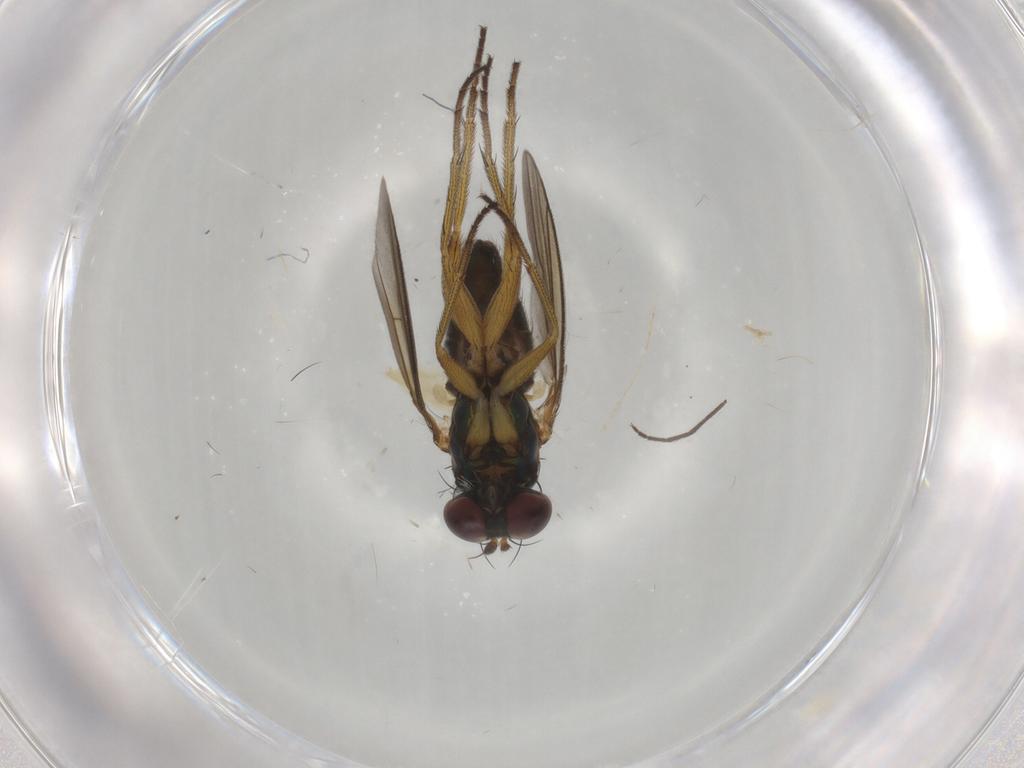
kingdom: Animalia
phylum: Arthropoda
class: Insecta
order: Diptera
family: Chironomidae
